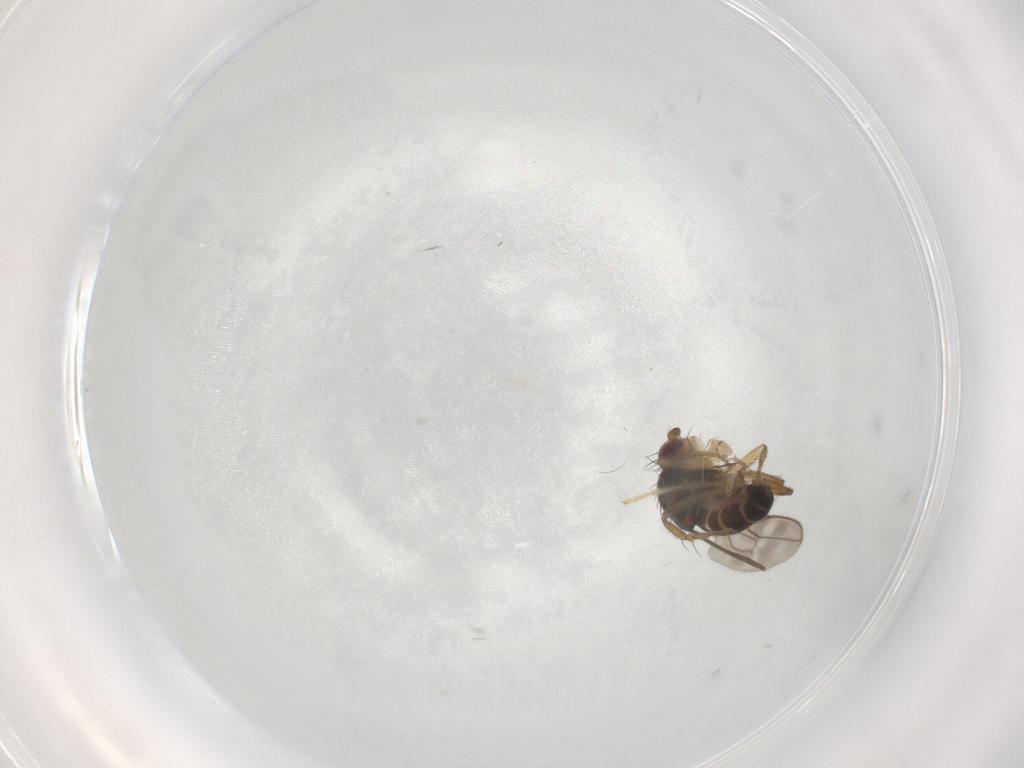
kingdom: Animalia
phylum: Arthropoda
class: Insecta
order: Diptera
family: Sphaeroceridae
